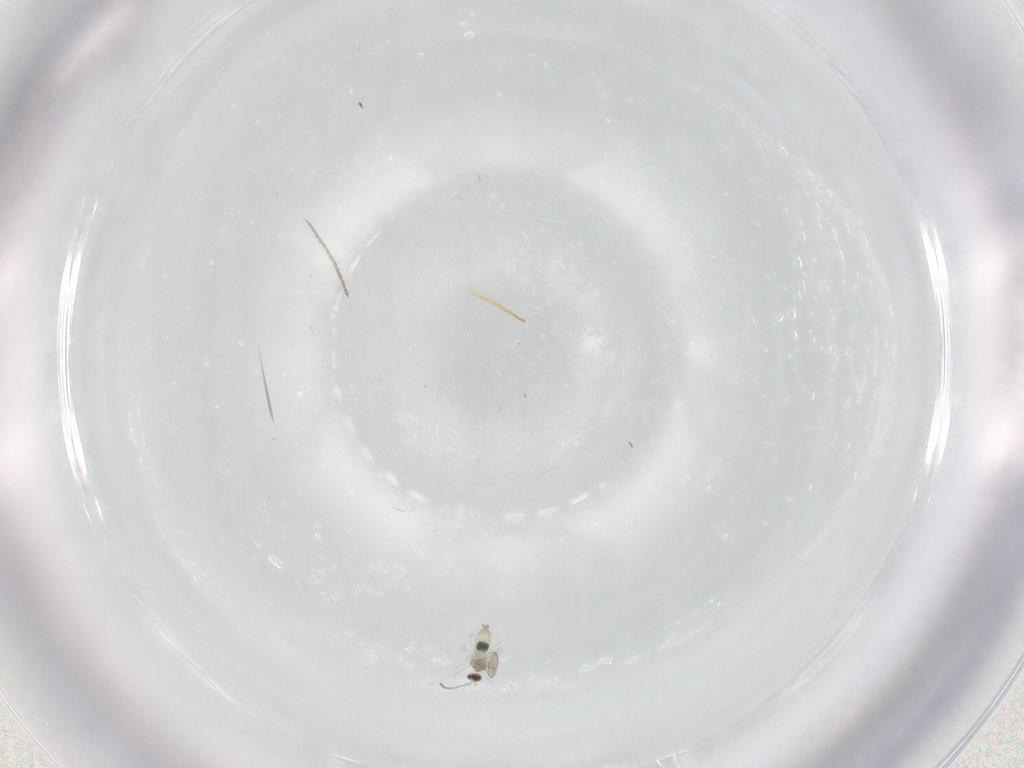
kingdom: Animalia
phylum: Arthropoda
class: Insecta
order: Diptera
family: Cecidomyiidae
